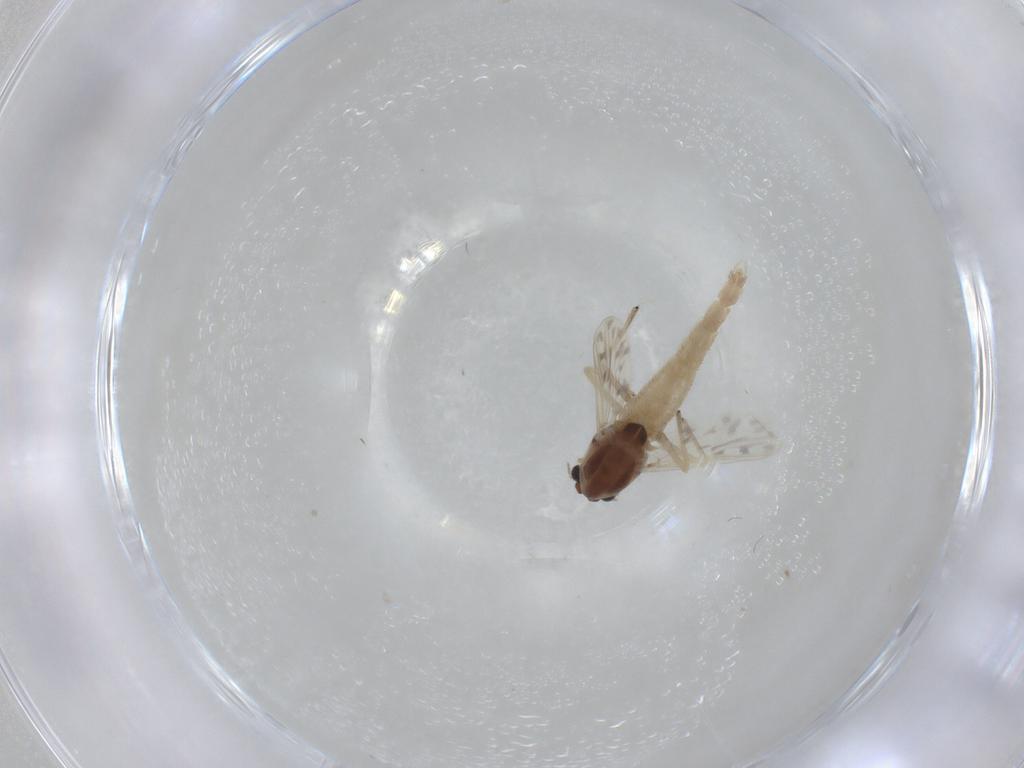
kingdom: Animalia
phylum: Arthropoda
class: Insecta
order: Diptera
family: Chironomidae
